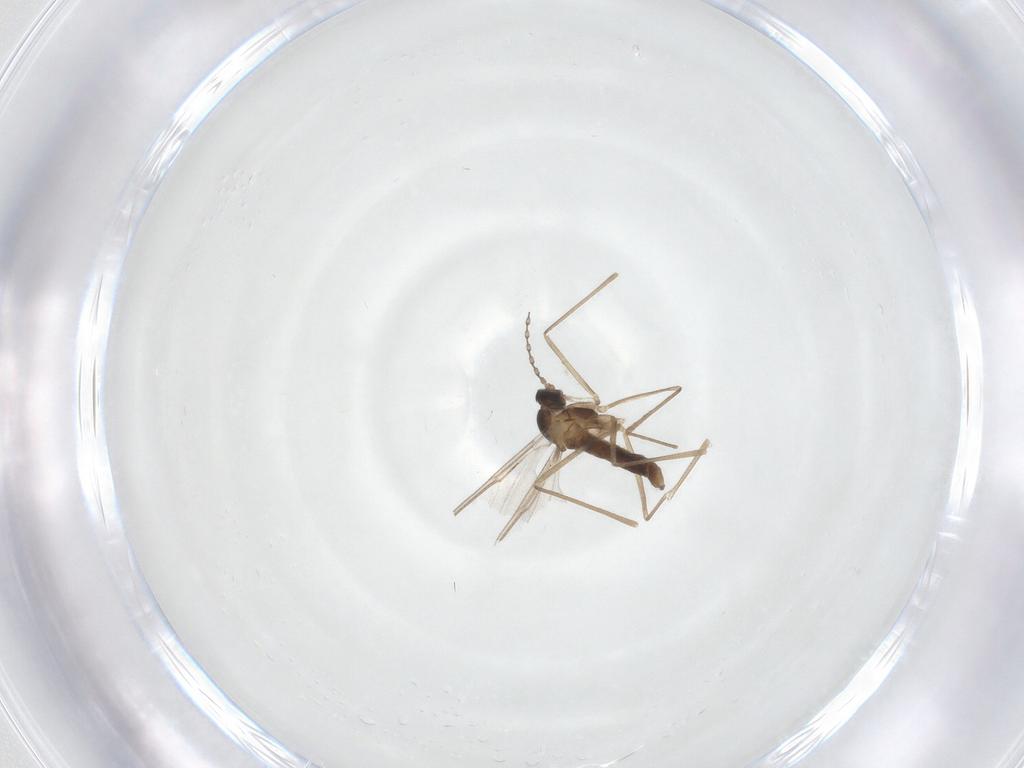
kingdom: Animalia
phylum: Arthropoda
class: Insecta
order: Diptera
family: Cecidomyiidae
